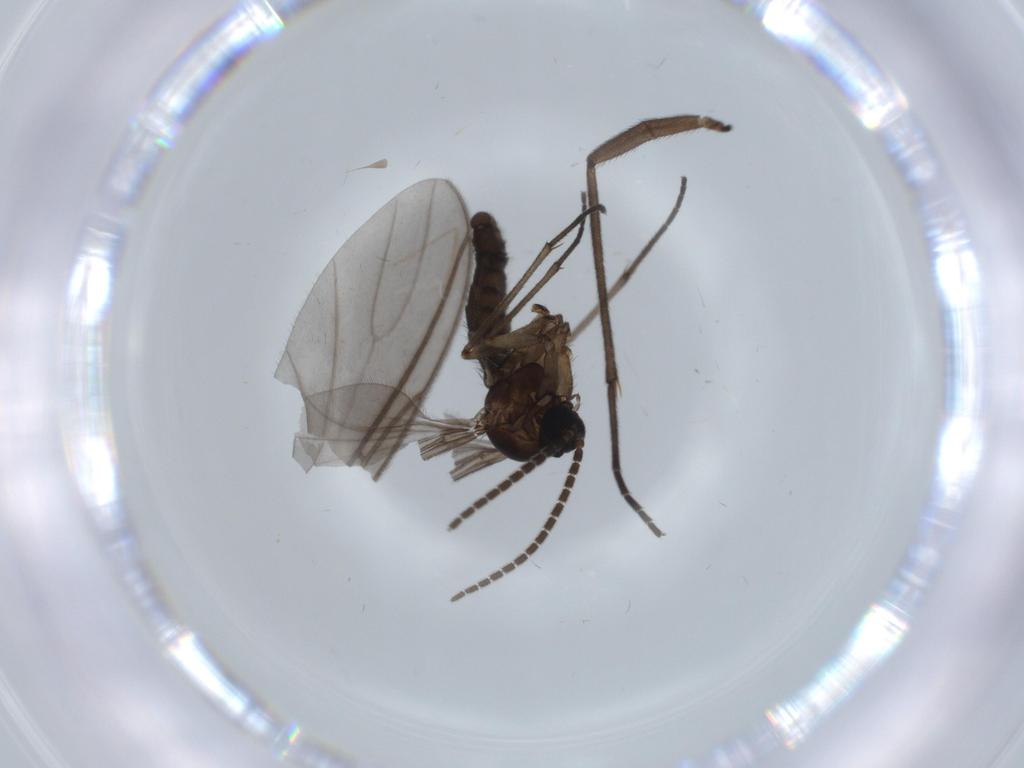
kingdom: Animalia
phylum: Arthropoda
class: Insecta
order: Diptera
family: Sciaridae
